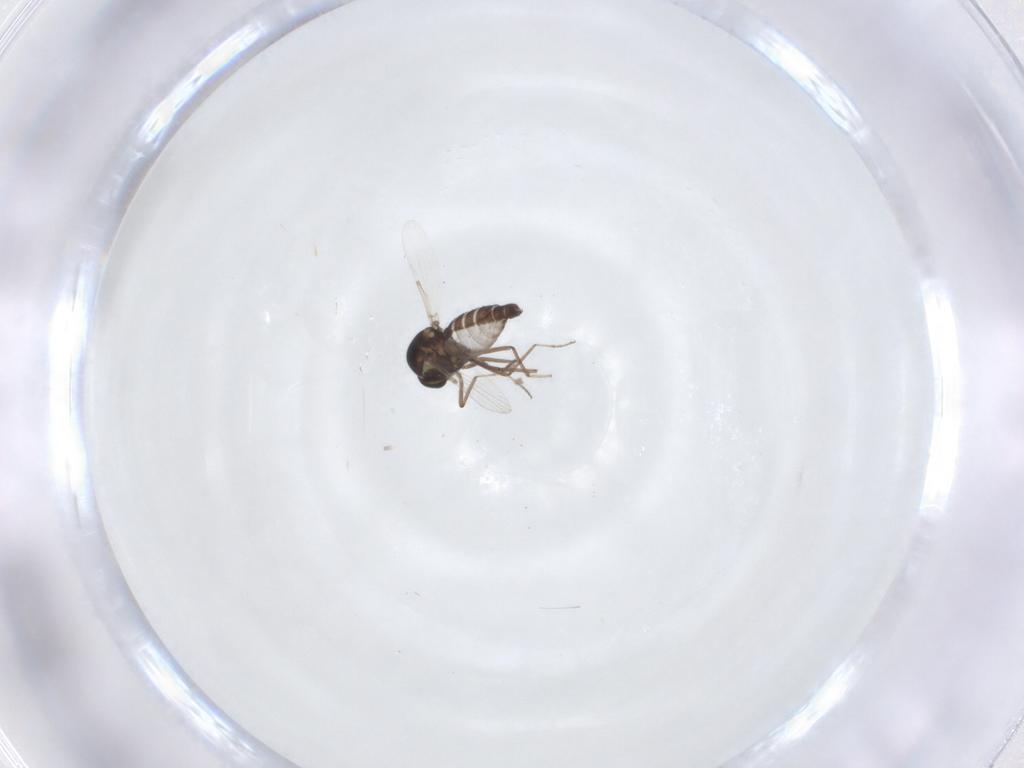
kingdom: Animalia
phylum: Arthropoda
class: Insecta
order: Diptera
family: Ceratopogonidae
